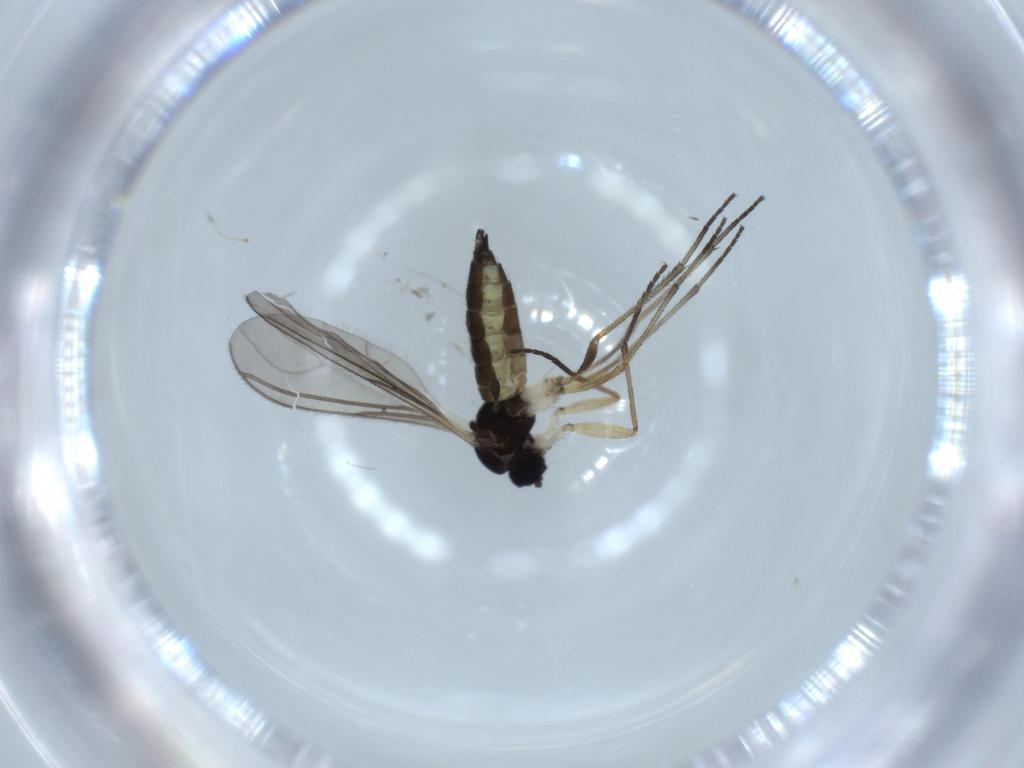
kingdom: Animalia
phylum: Arthropoda
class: Insecta
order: Diptera
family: Sciaridae
